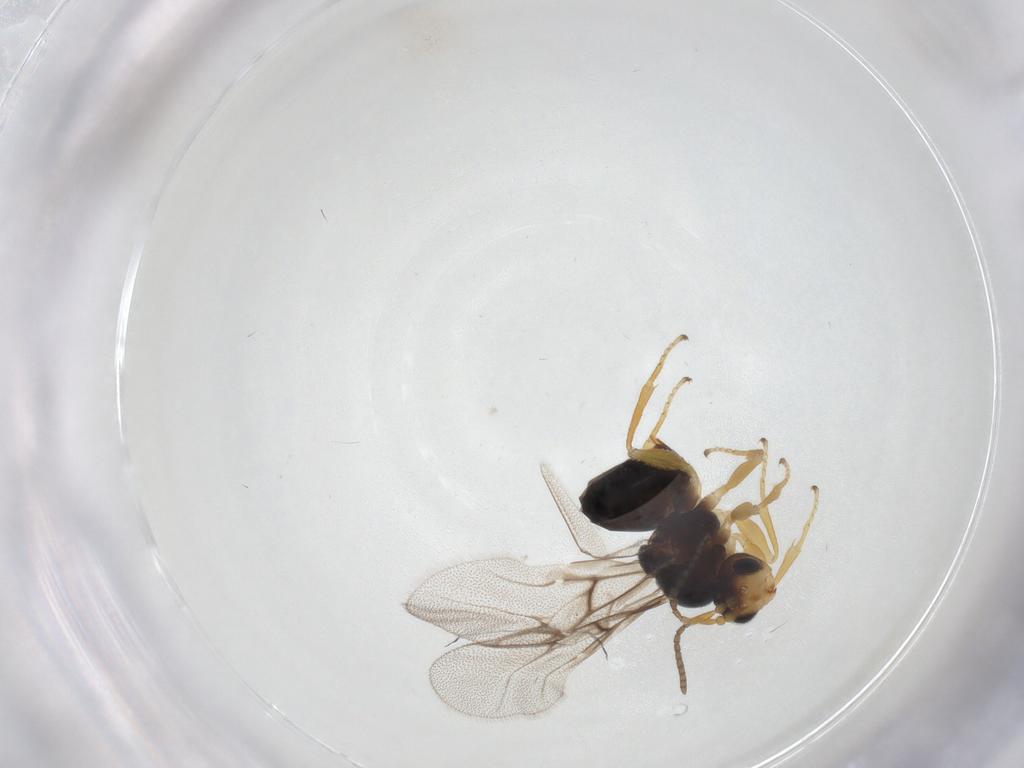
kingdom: Animalia
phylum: Arthropoda
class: Insecta
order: Hymenoptera
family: Cynipidae
